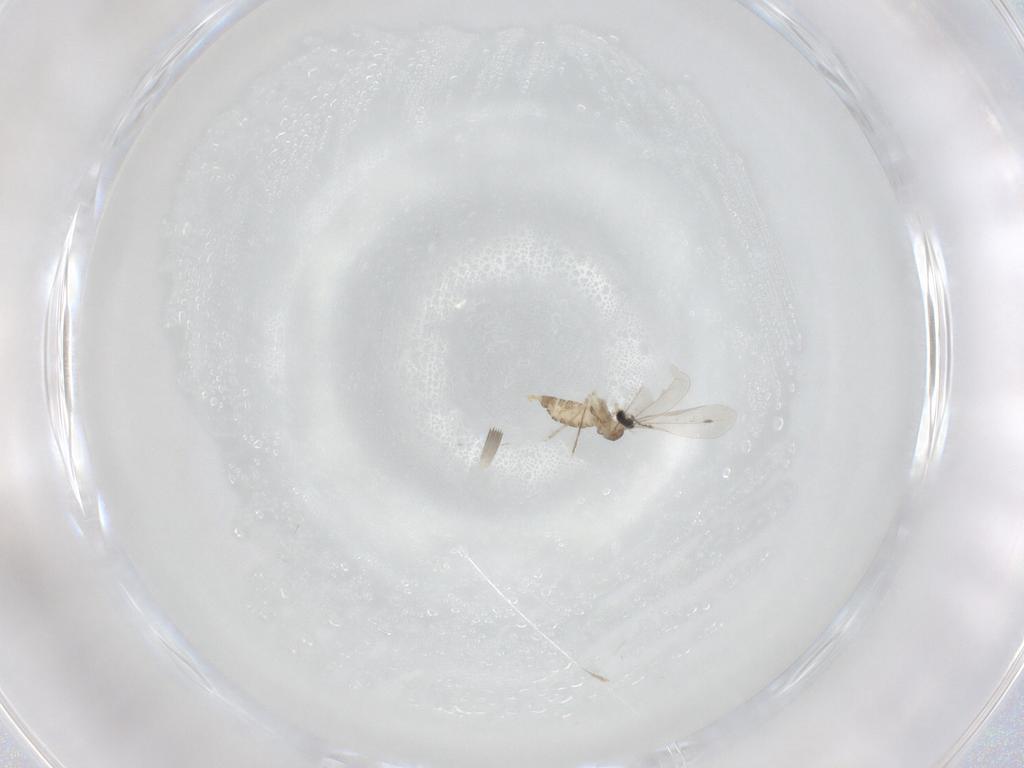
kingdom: Animalia
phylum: Arthropoda
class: Insecta
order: Diptera
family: Cecidomyiidae
